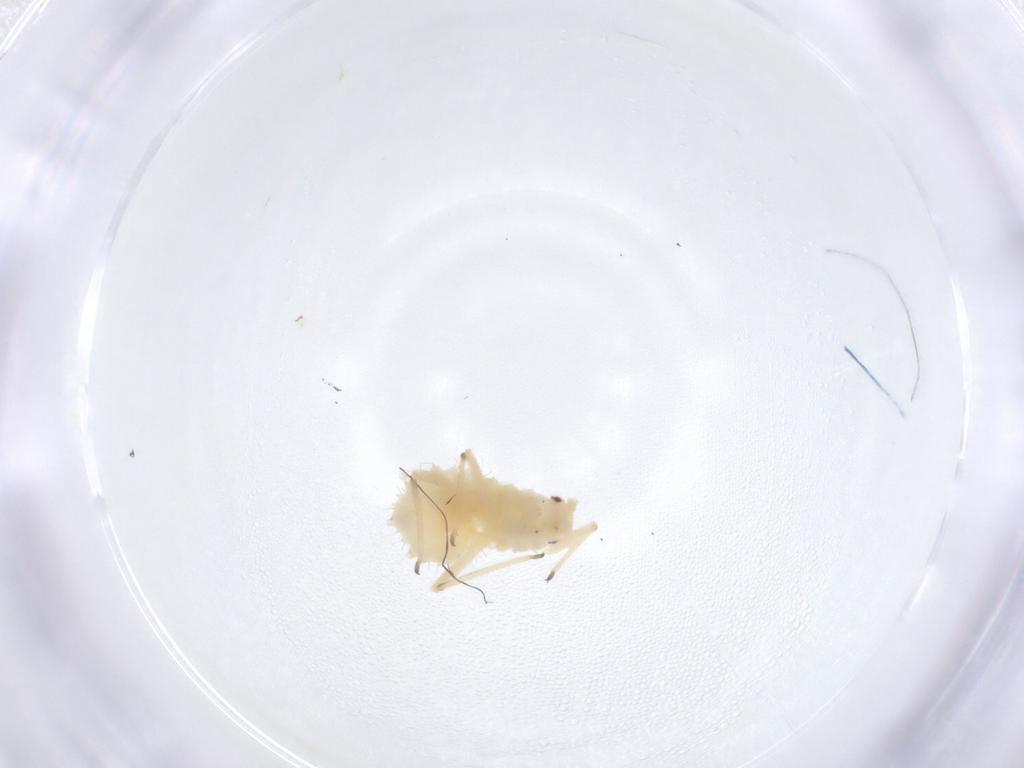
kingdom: Animalia
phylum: Arthropoda
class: Insecta
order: Hemiptera
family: Aphididae
